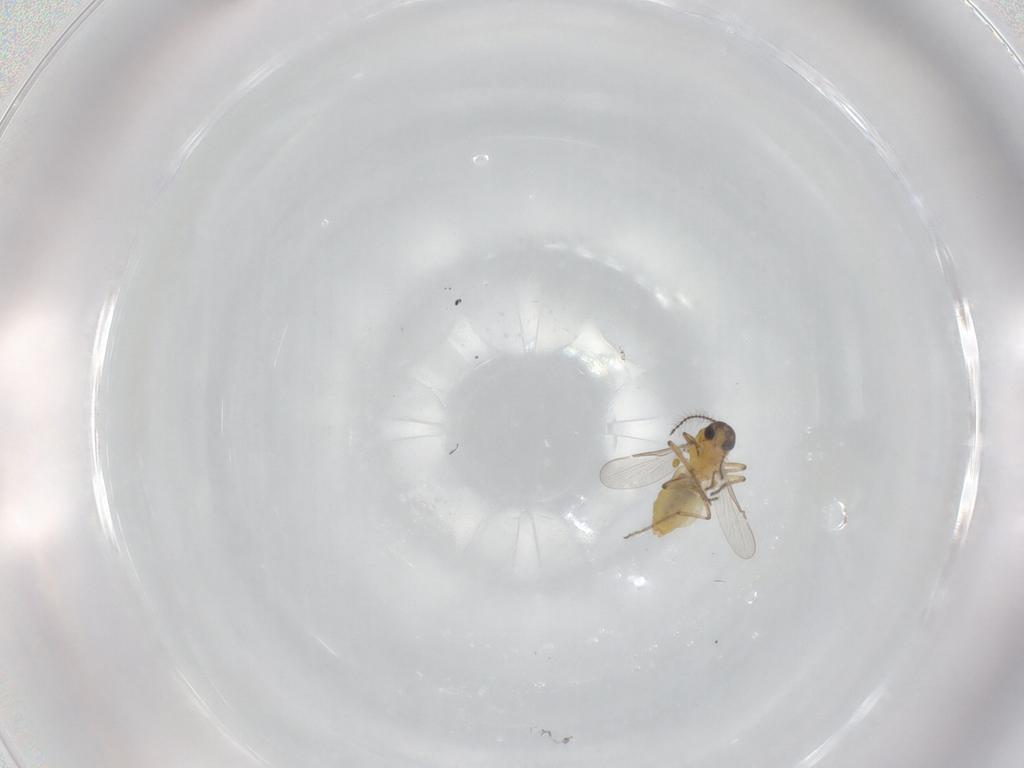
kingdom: Animalia
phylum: Arthropoda
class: Insecta
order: Diptera
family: Ceratopogonidae
